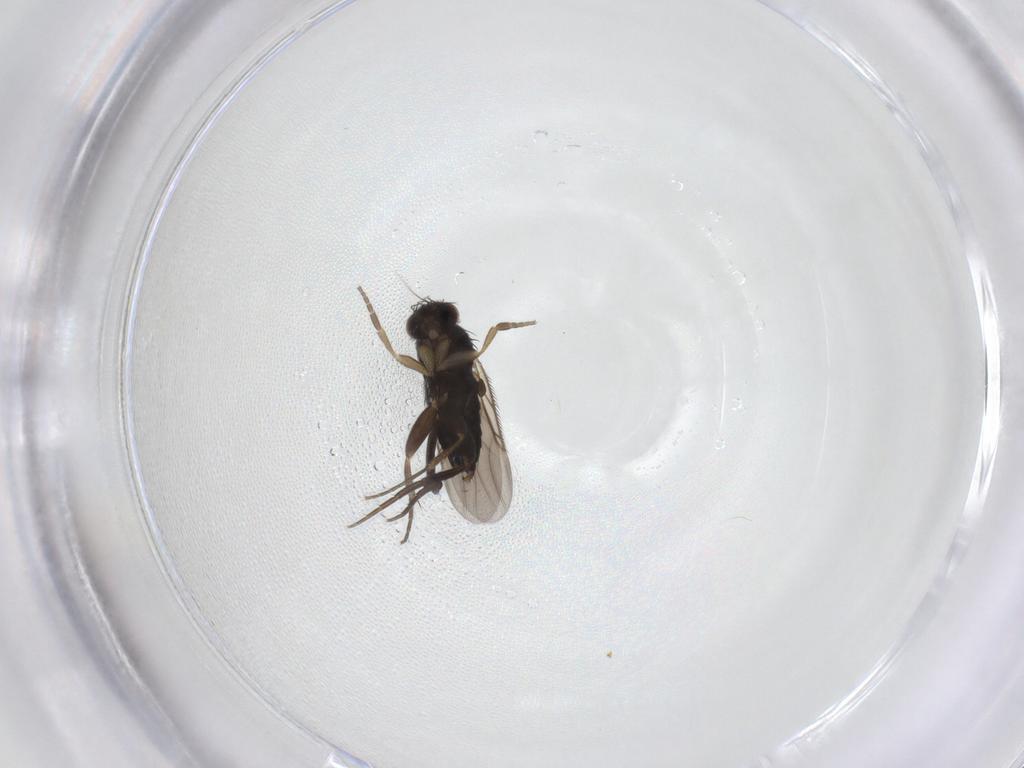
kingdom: Animalia
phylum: Arthropoda
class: Insecta
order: Diptera
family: Phoridae
